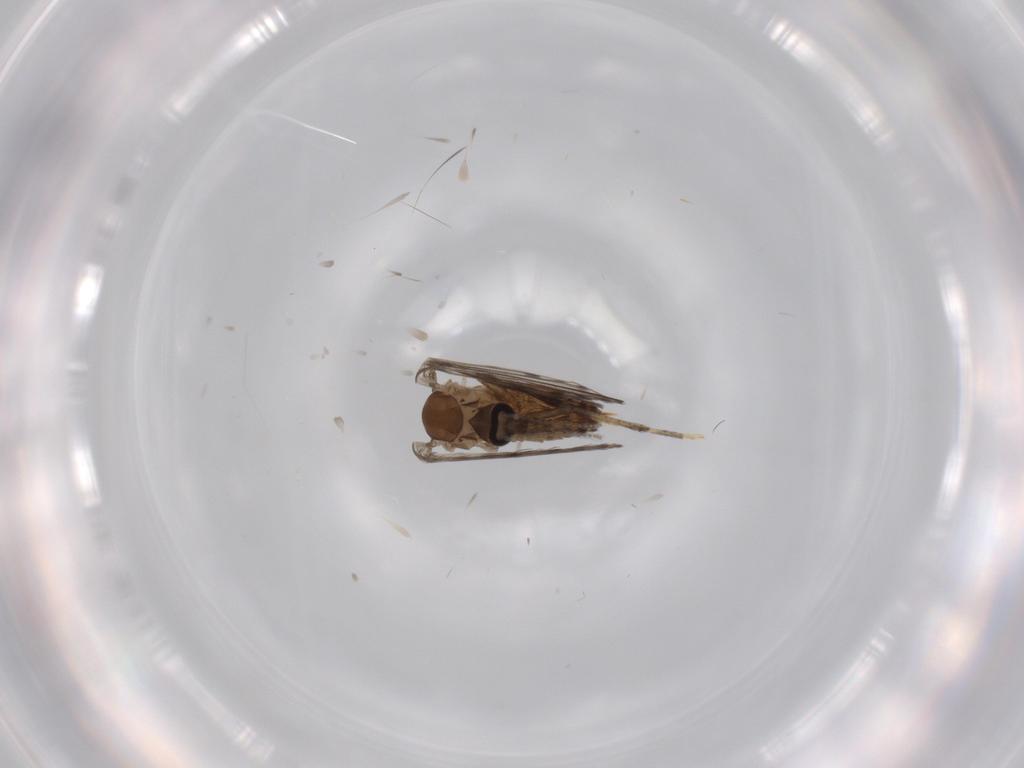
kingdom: Animalia
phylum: Arthropoda
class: Insecta
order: Diptera
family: Psychodidae
